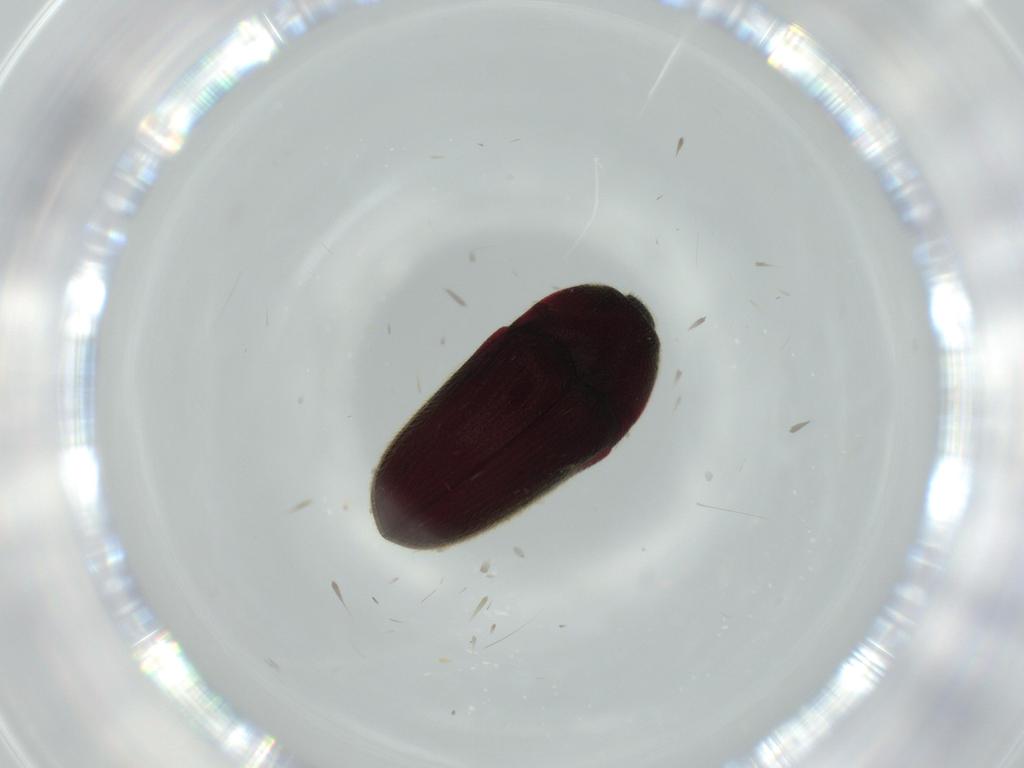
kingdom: Animalia
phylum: Arthropoda
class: Insecta
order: Coleoptera
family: Throscidae
